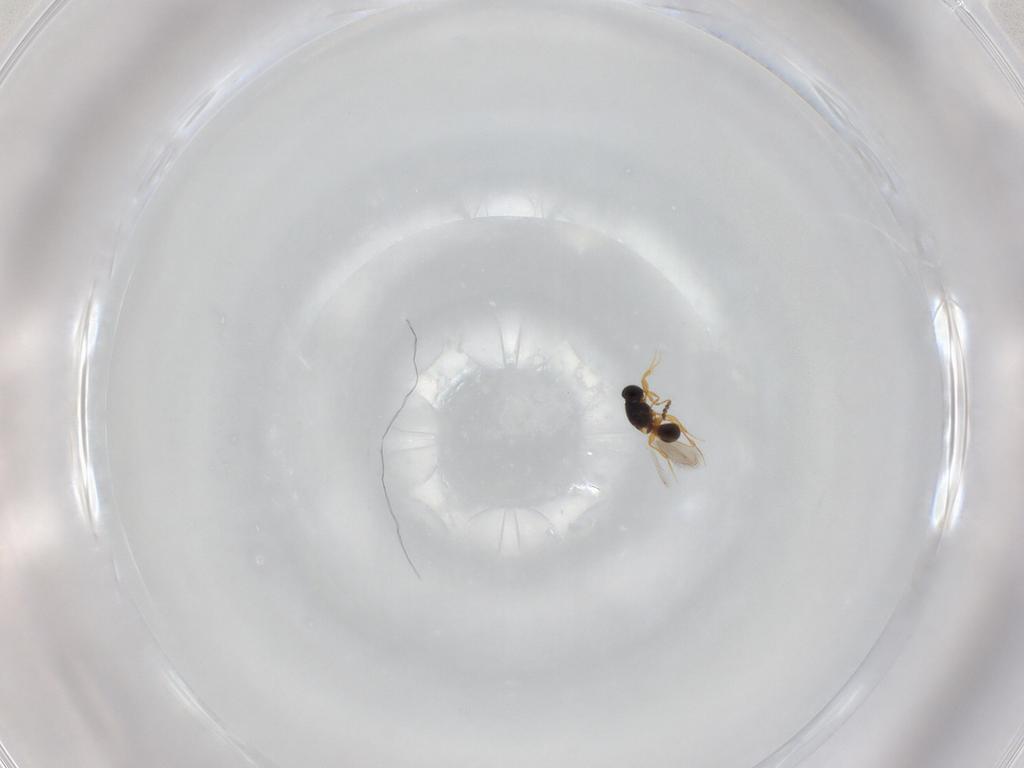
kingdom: Animalia
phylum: Arthropoda
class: Insecta
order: Hymenoptera
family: Platygastridae
